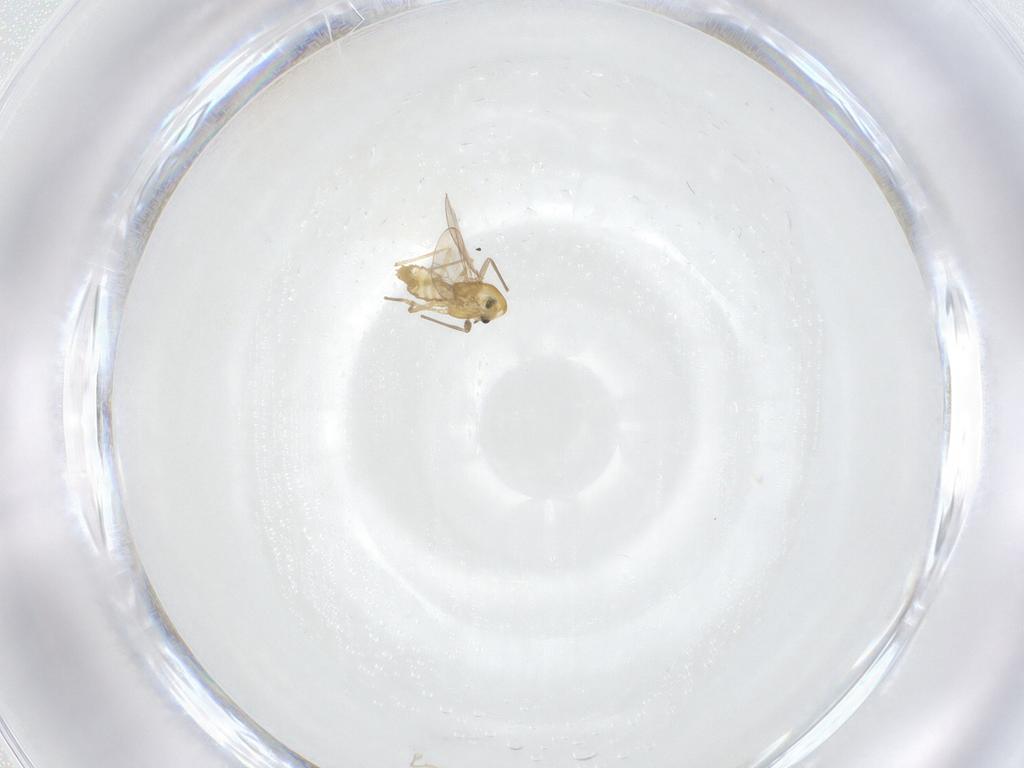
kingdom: Animalia
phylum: Arthropoda
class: Insecta
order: Diptera
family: Chironomidae
